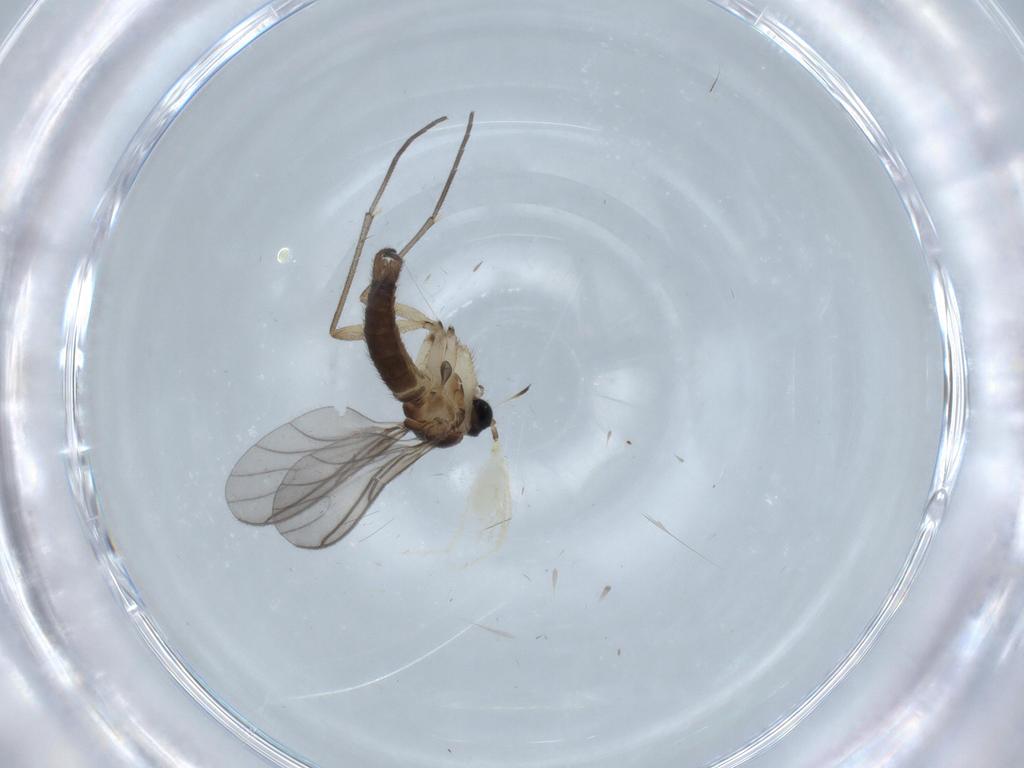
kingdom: Animalia
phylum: Arthropoda
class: Insecta
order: Diptera
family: Sciaridae
